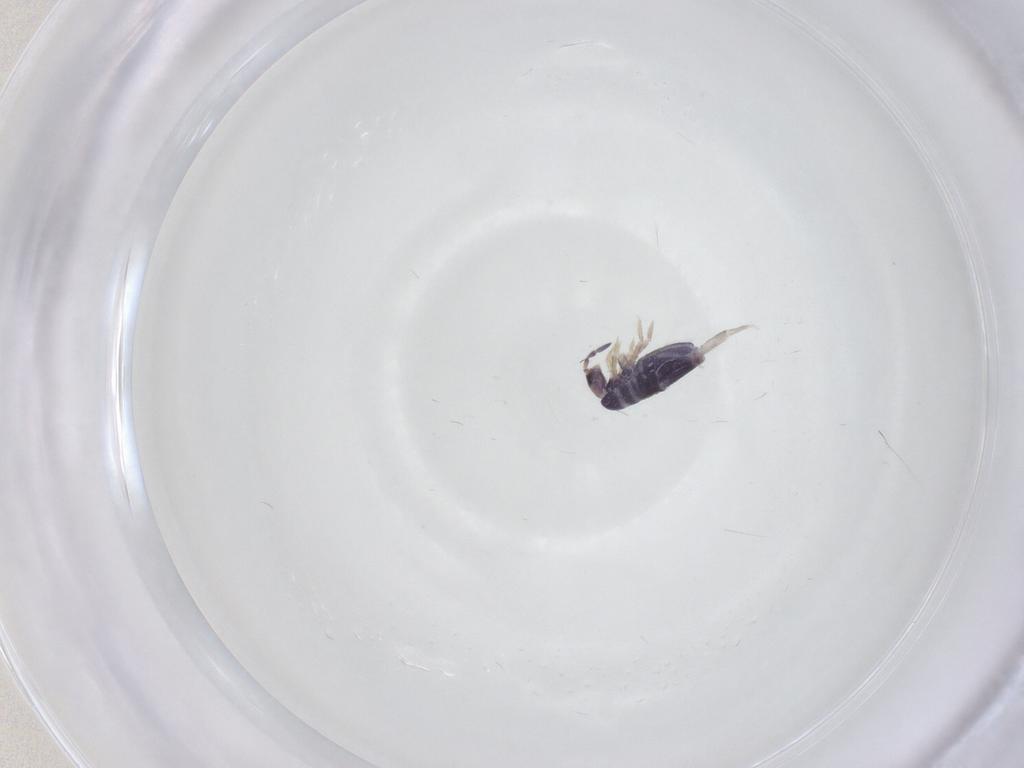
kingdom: Animalia
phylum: Arthropoda
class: Collembola
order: Entomobryomorpha
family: Entomobryidae
